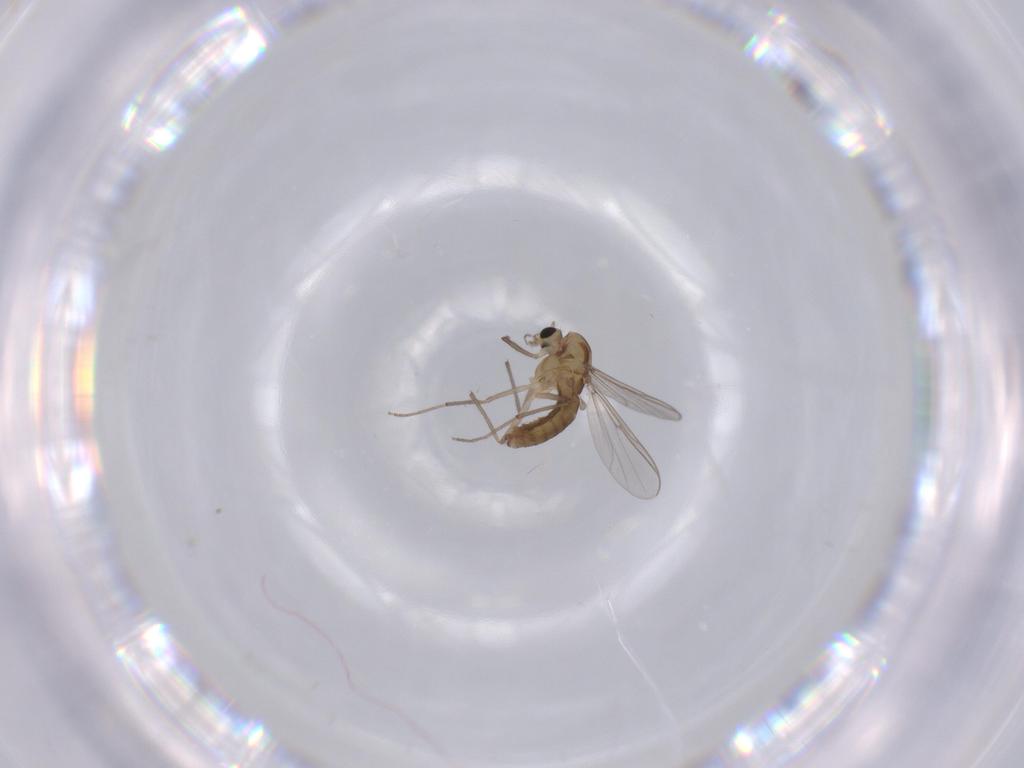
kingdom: Animalia
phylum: Arthropoda
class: Insecta
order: Diptera
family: Chironomidae
